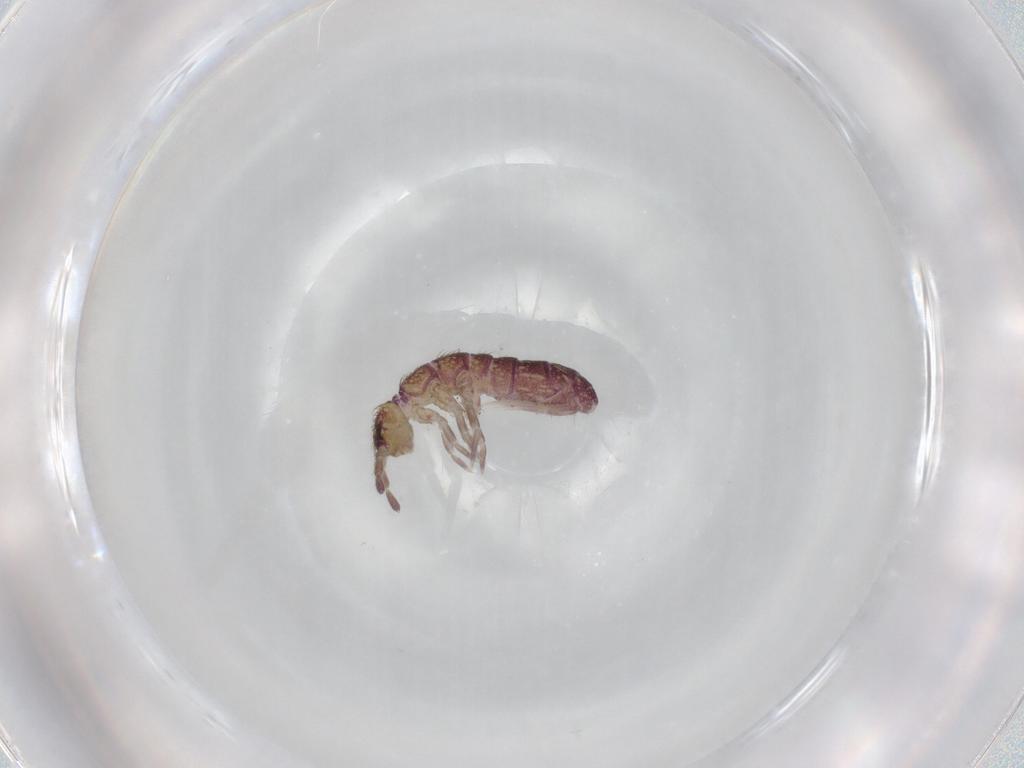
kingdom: Animalia
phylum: Arthropoda
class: Collembola
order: Entomobryomorpha
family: Isotomidae
